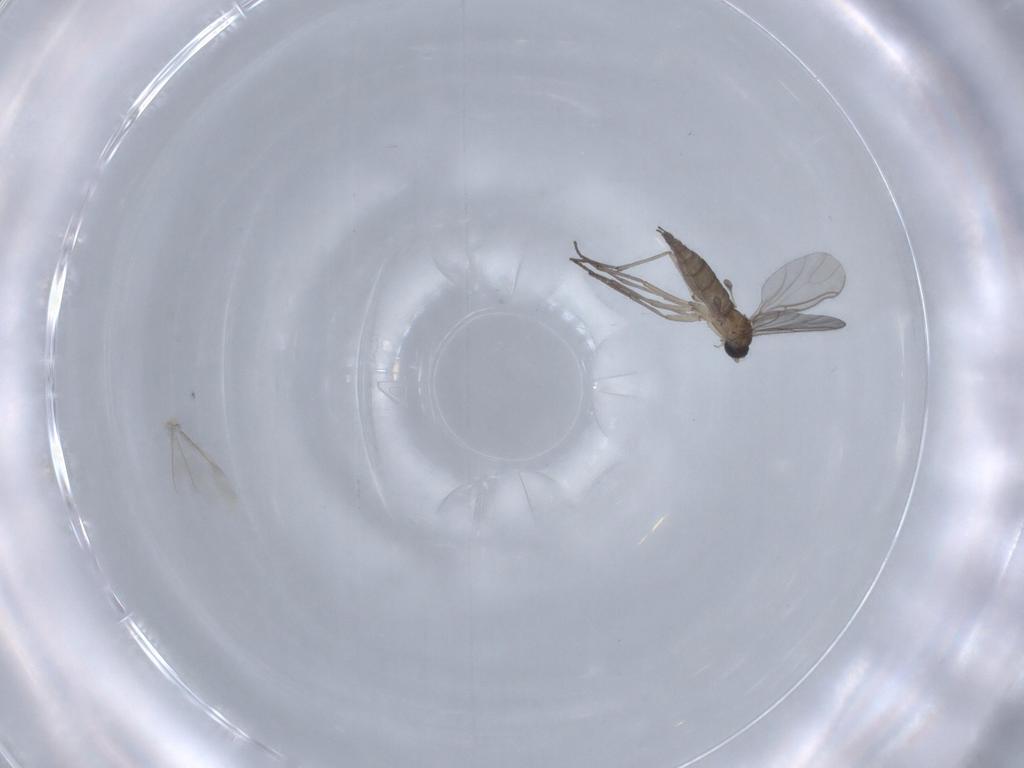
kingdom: Animalia
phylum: Arthropoda
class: Insecta
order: Diptera
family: Sciaridae
